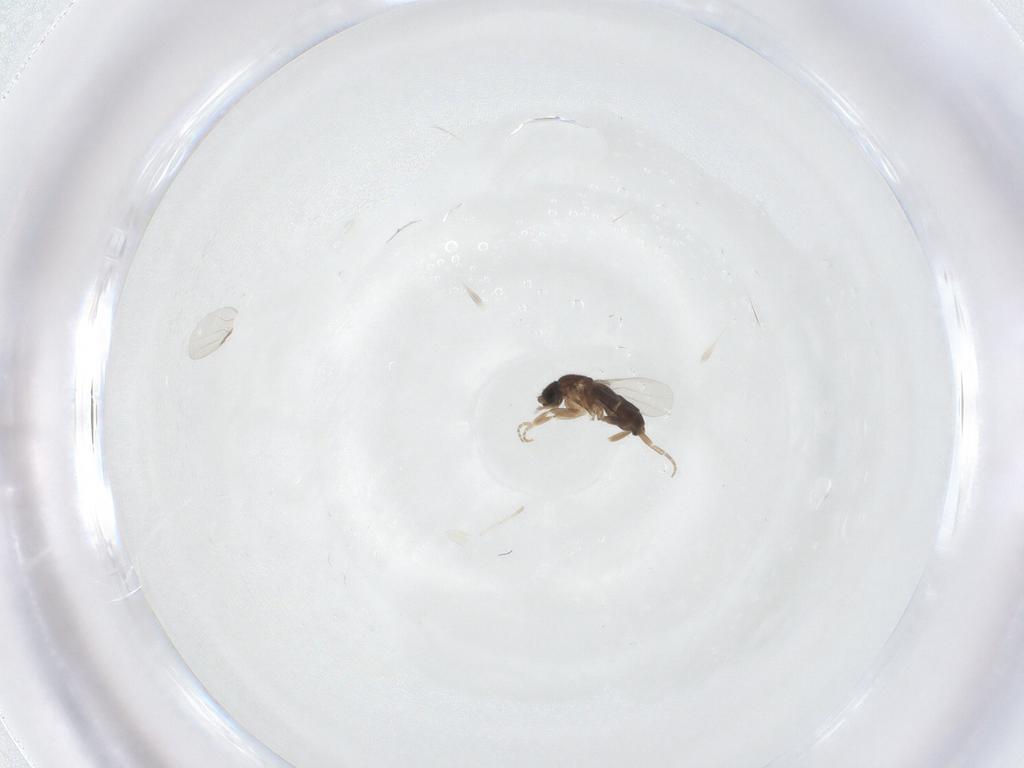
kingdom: Animalia
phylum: Arthropoda
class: Insecta
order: Diptera
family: Phoridae
